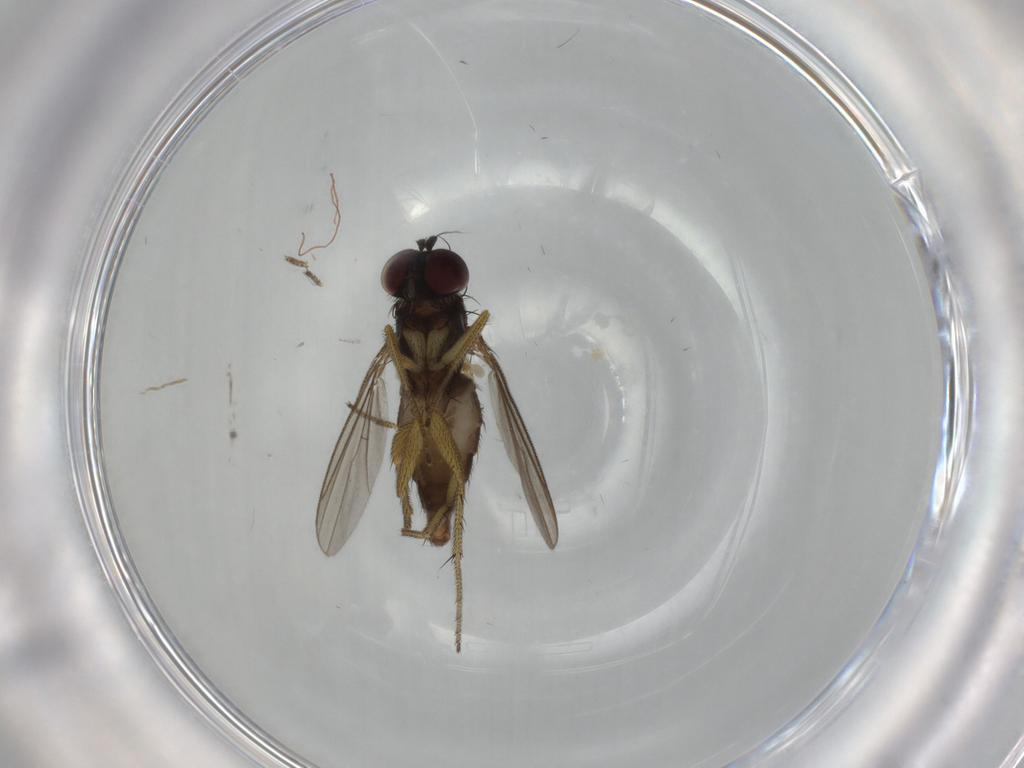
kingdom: Animalia
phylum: Arthropoda
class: Insecta
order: Diptera
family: Dolichopodidae
